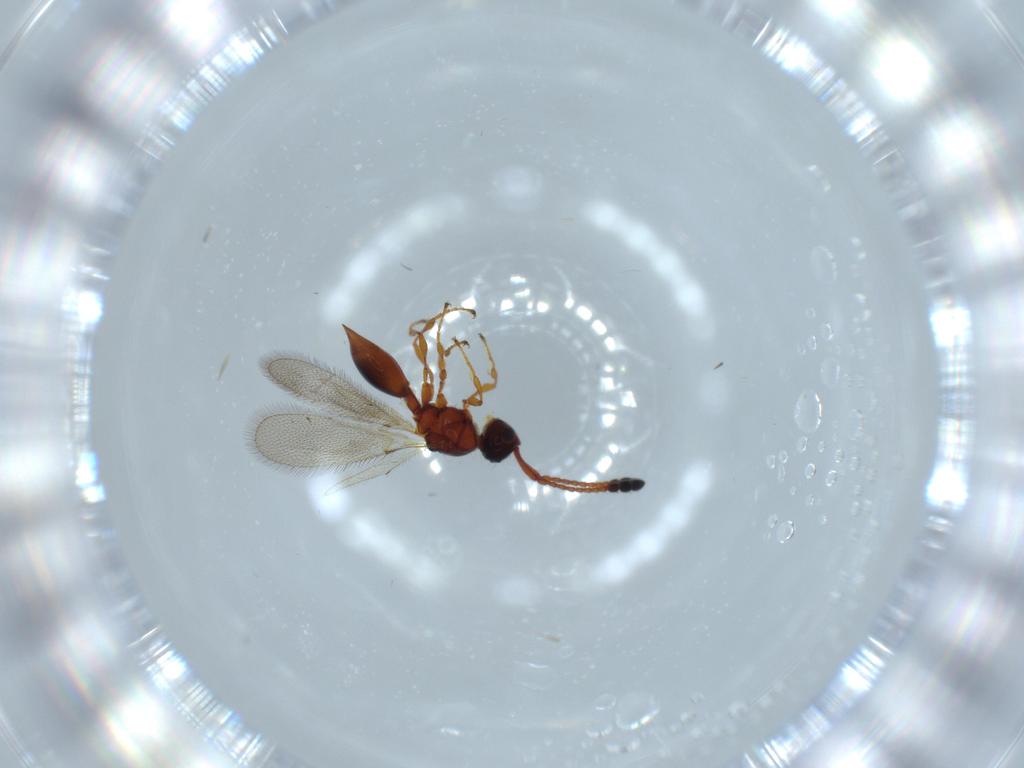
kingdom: Animalia
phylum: Arthropoda
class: Insecta
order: Hymenoptera
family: Diapriidae
